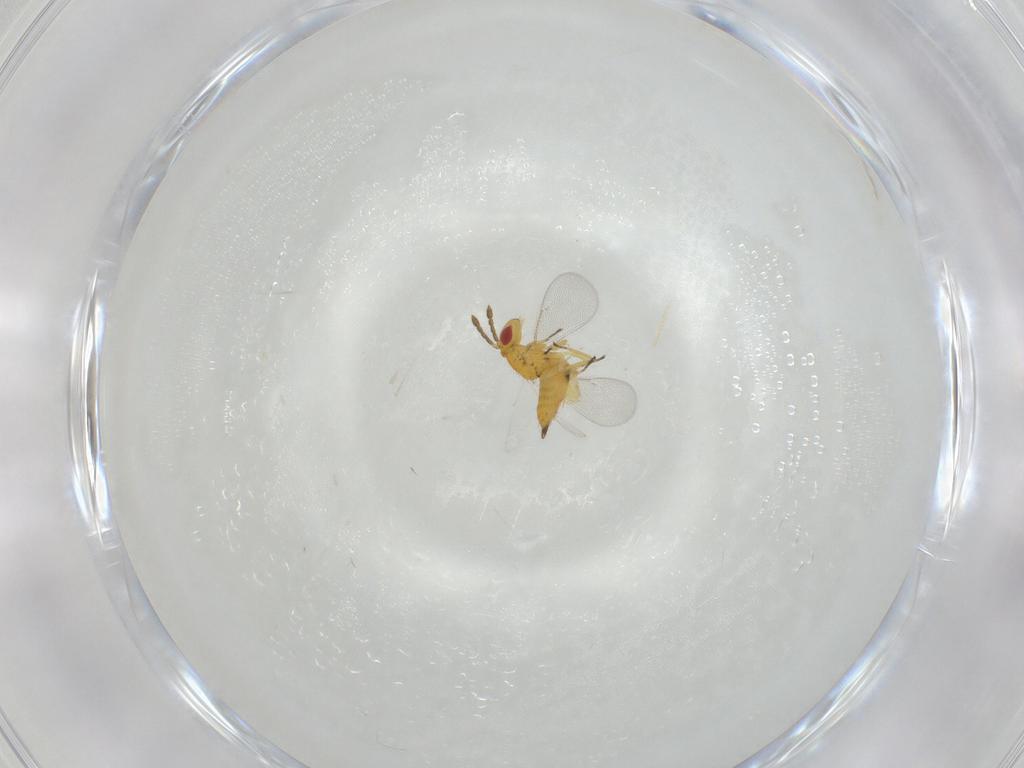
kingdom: Animalia
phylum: Arthropoda
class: Insecta
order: Hymenoptera
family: Eulophidae
